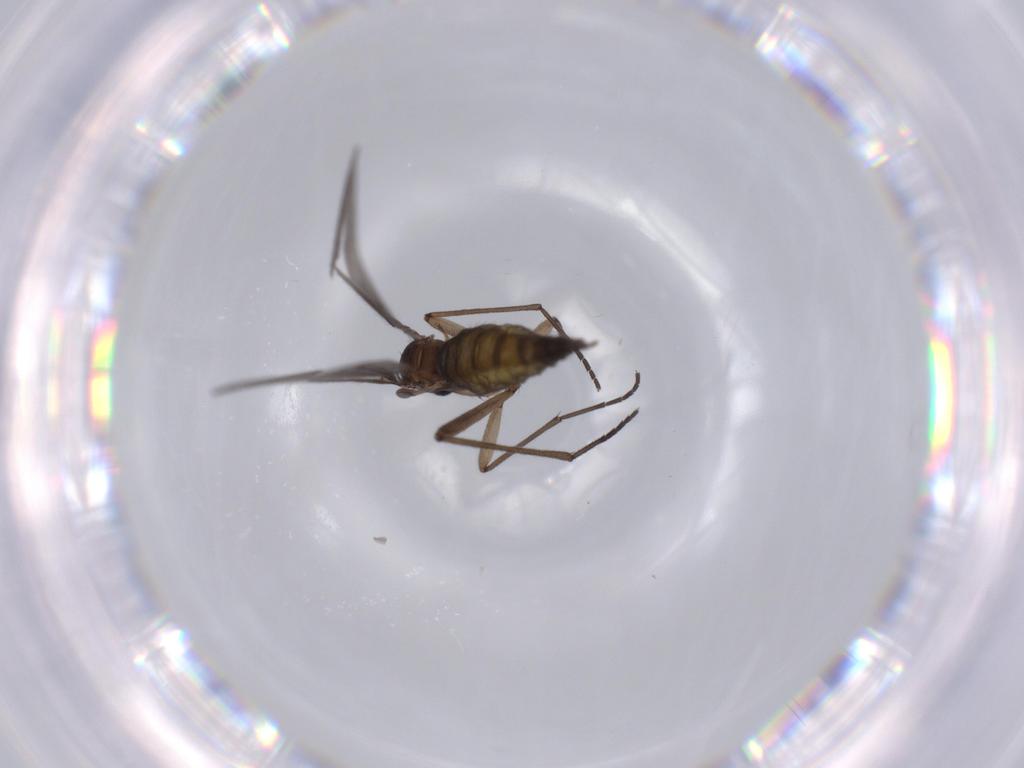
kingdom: Animalia
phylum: Arthropoda
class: Insecta
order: Diptera
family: Sciaridae
